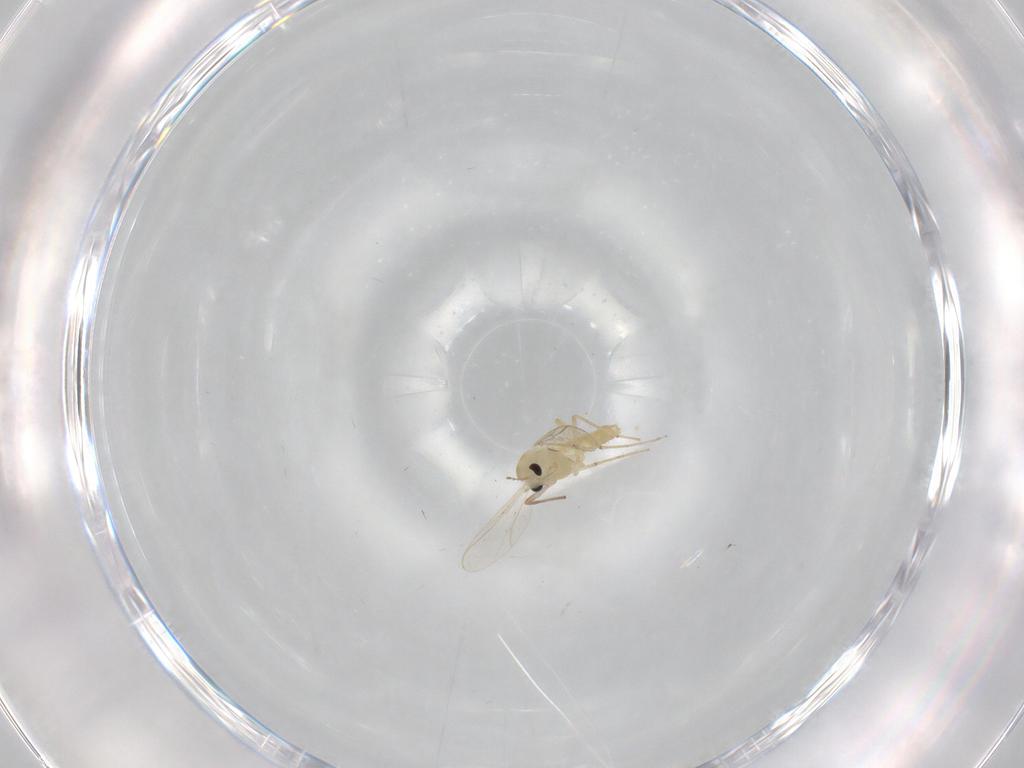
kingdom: Animalia
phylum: Arthropoda
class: Insecta
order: Diptera
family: Chironomidae
